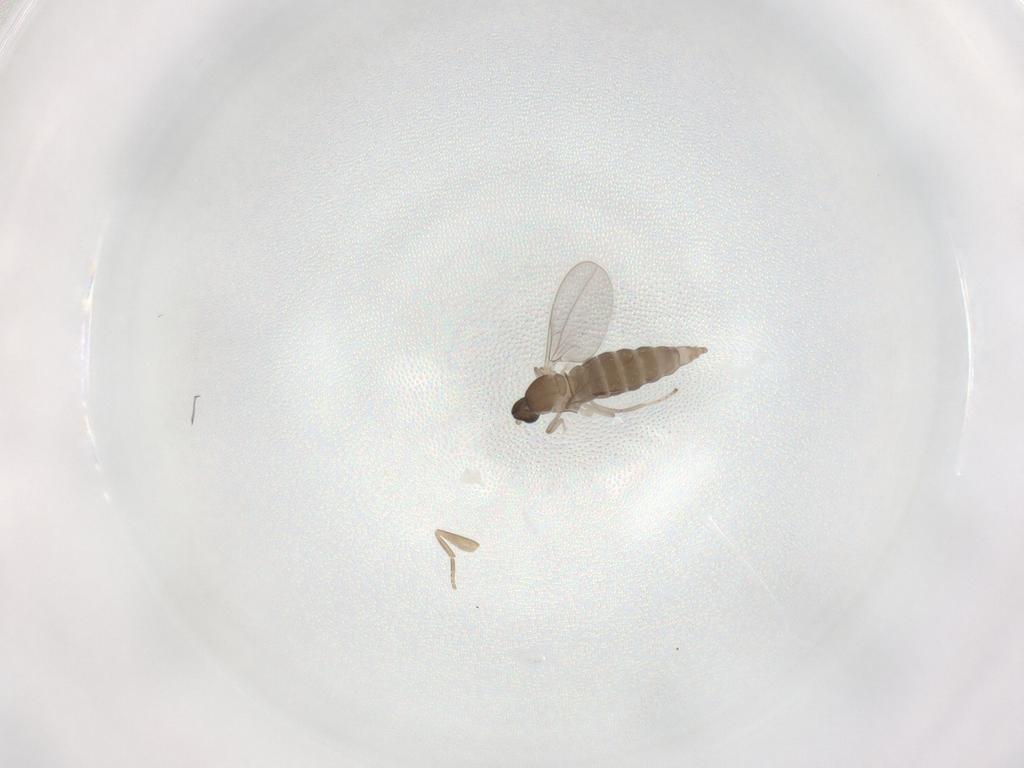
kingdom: Animalia
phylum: Arthropoda
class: Insecta
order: Diptera
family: Cecidomyiidae
